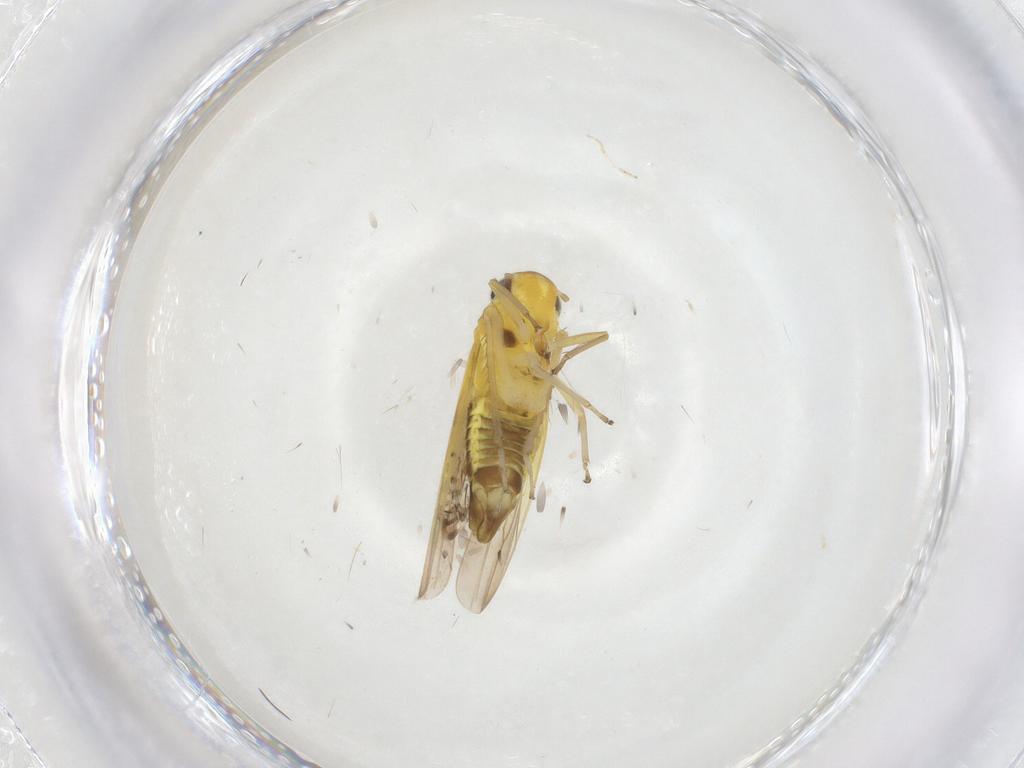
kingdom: Animalia
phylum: Arthropoda
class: Insecta
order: Hemiptera
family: Cicadellidae
